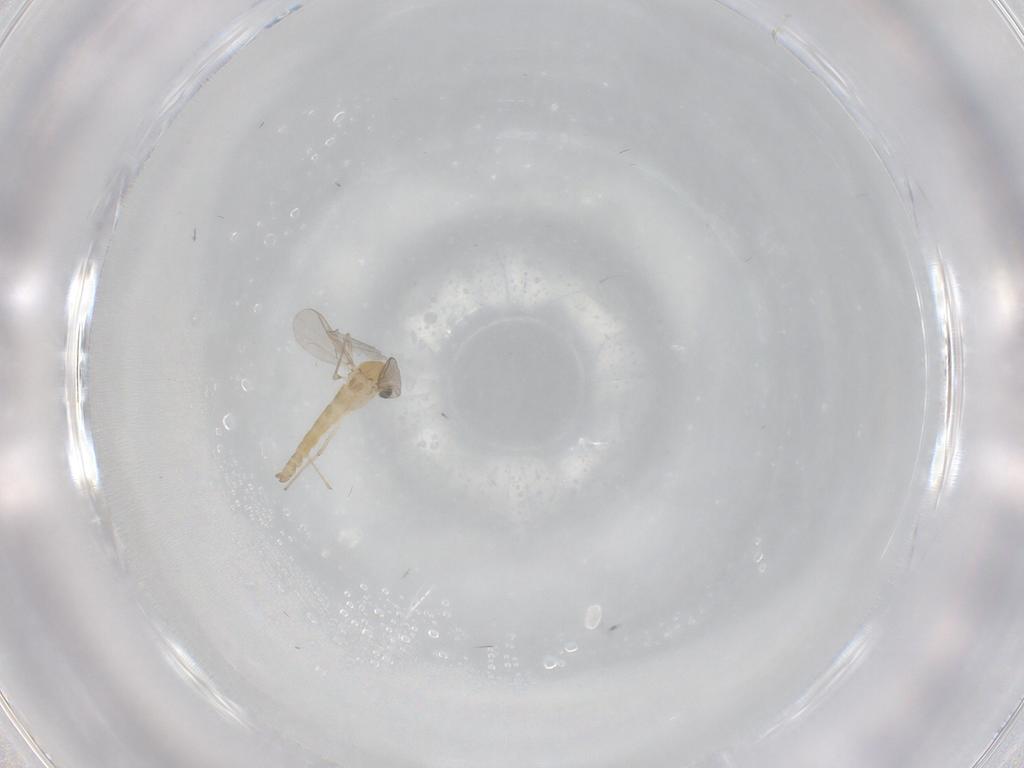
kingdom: Animalia
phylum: Arthropoda
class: Insecta
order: Diptera
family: Chironomidae
